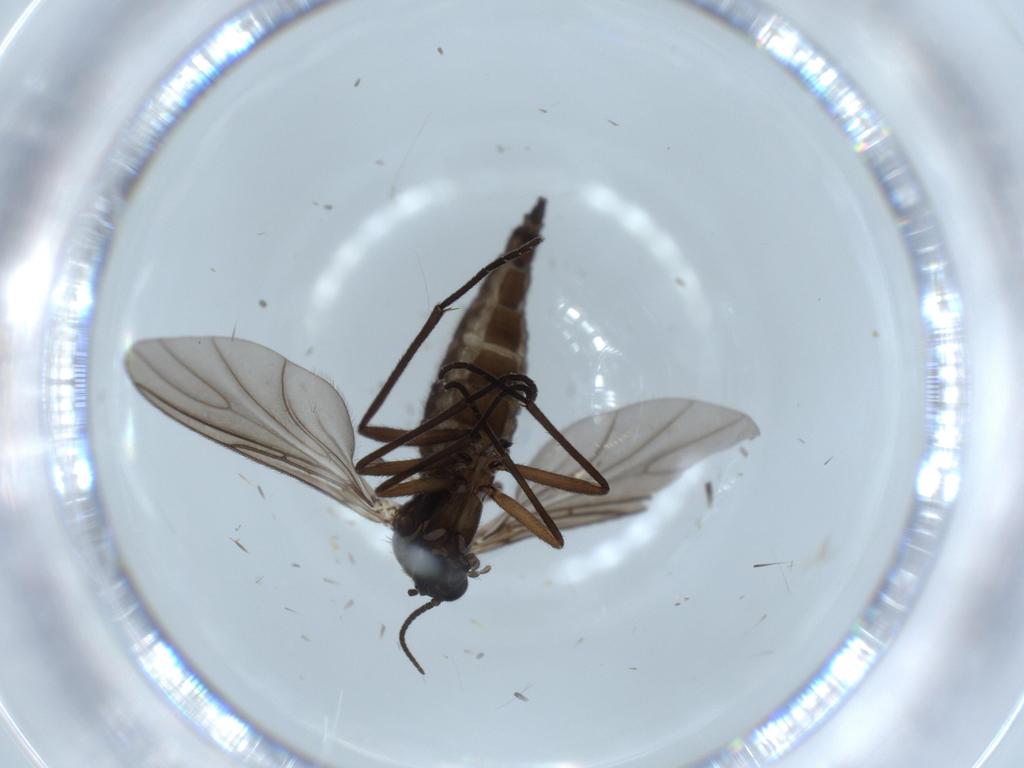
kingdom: Animalia
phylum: Arthropoda
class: Insecta
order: Diptera
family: Sciaridae
